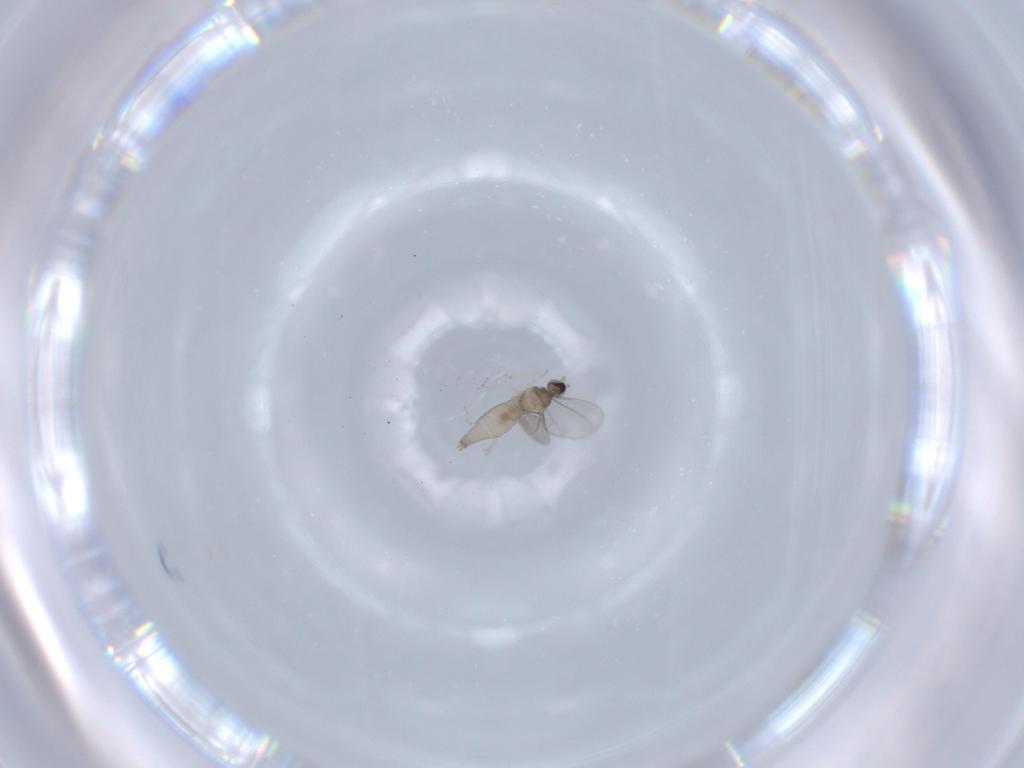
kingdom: Animalia
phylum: Arthropoda
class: Insecta
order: Diptera
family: Cecidomyiidae
